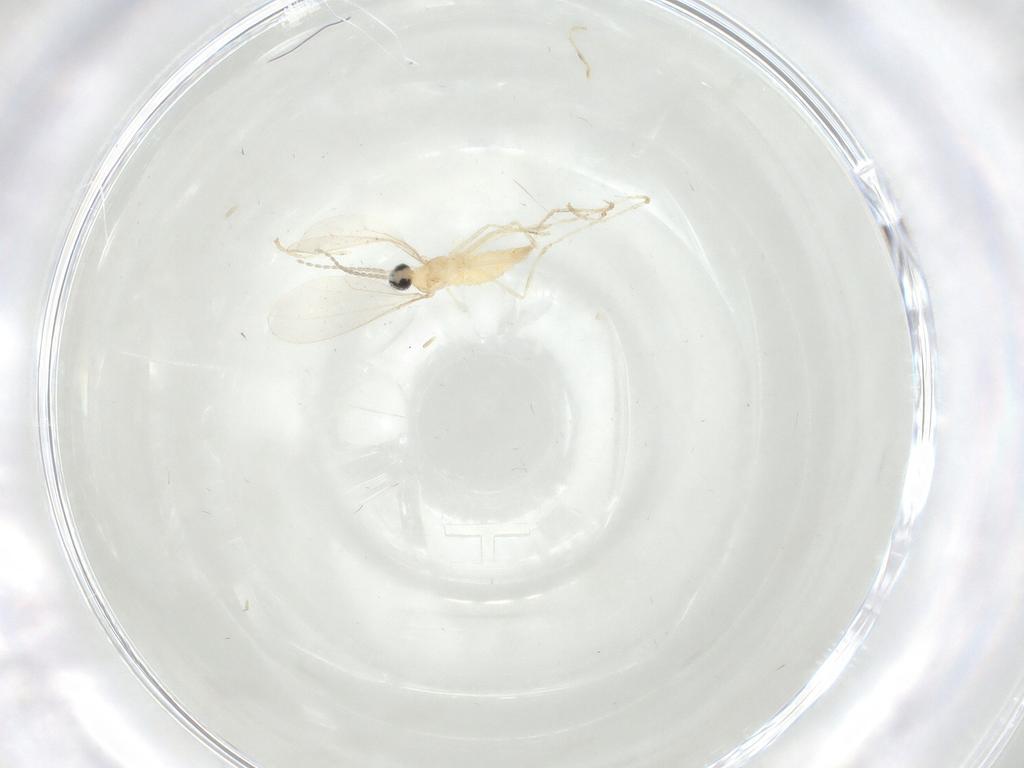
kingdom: Animalia
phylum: Arthropoda
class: Insecta
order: Diptera
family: Cecidomyiidae
